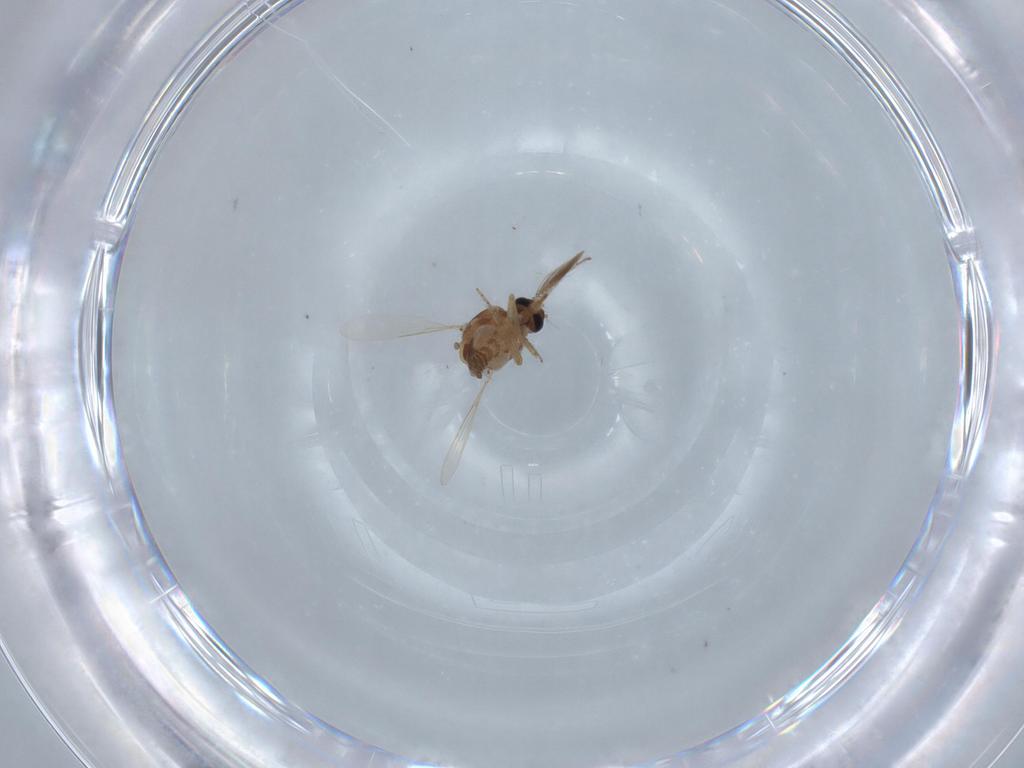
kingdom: Animalia
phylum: Arthropoda
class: Insecta
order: Diptera
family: Ceratopogonidae
